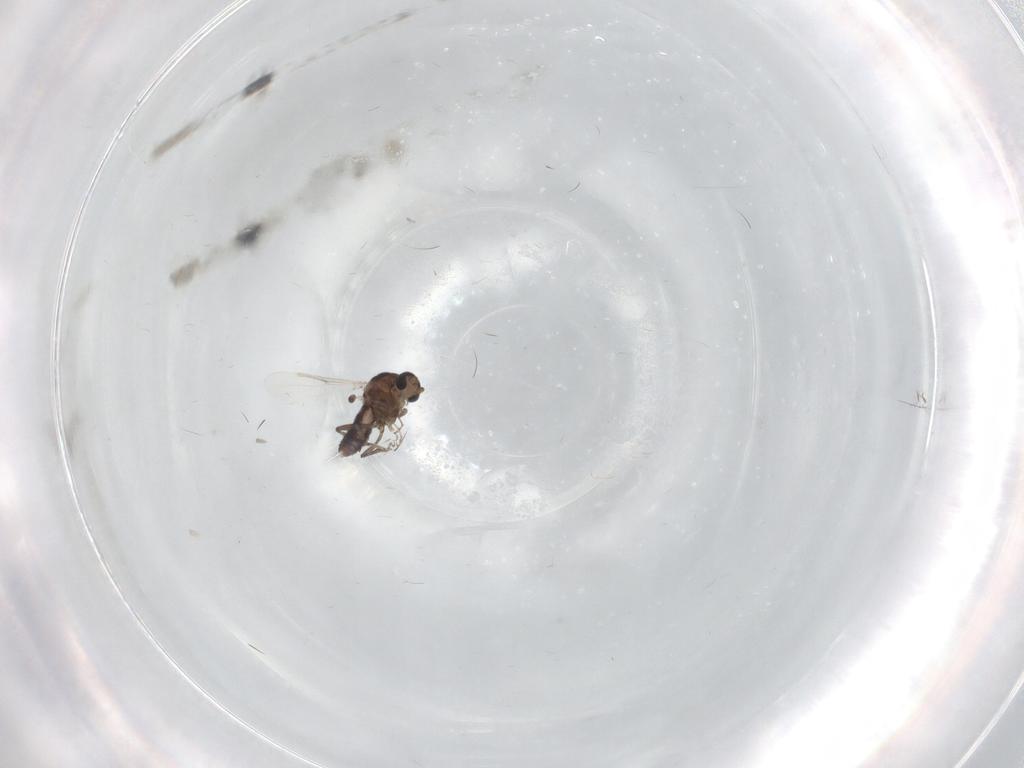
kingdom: Animalia
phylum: Arthropoda
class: Insecta
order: Diptera
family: Ceratopogonidae
